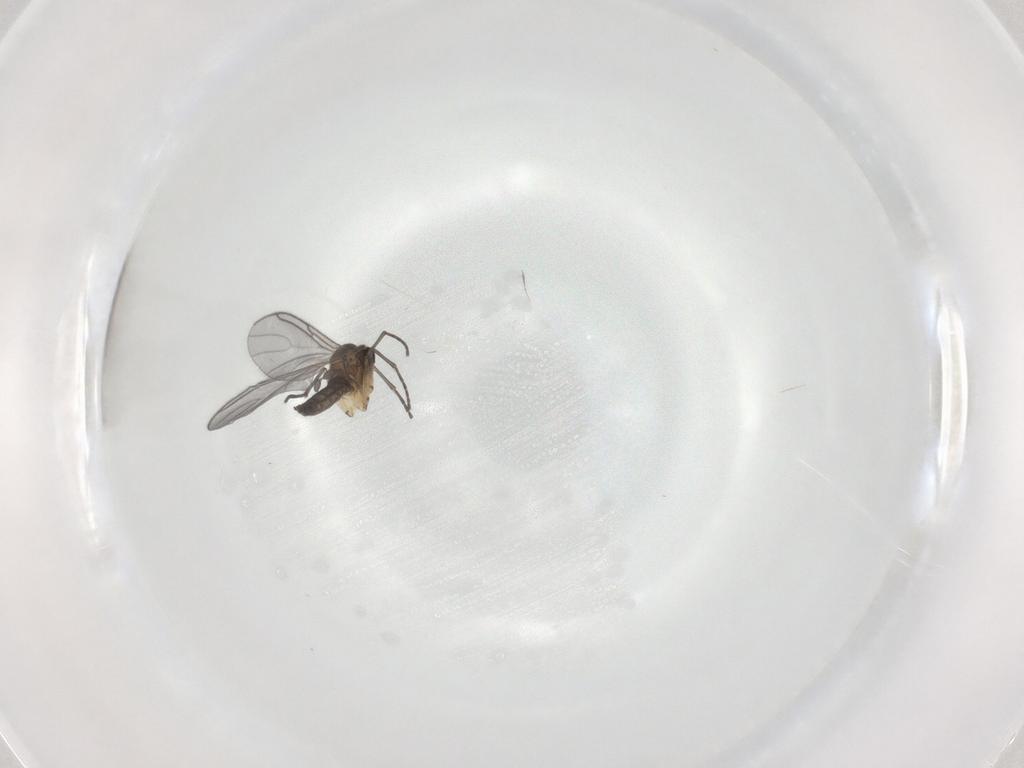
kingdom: Animalia
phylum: Arthropoda
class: Insecta
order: Diptera
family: Sciaridae
